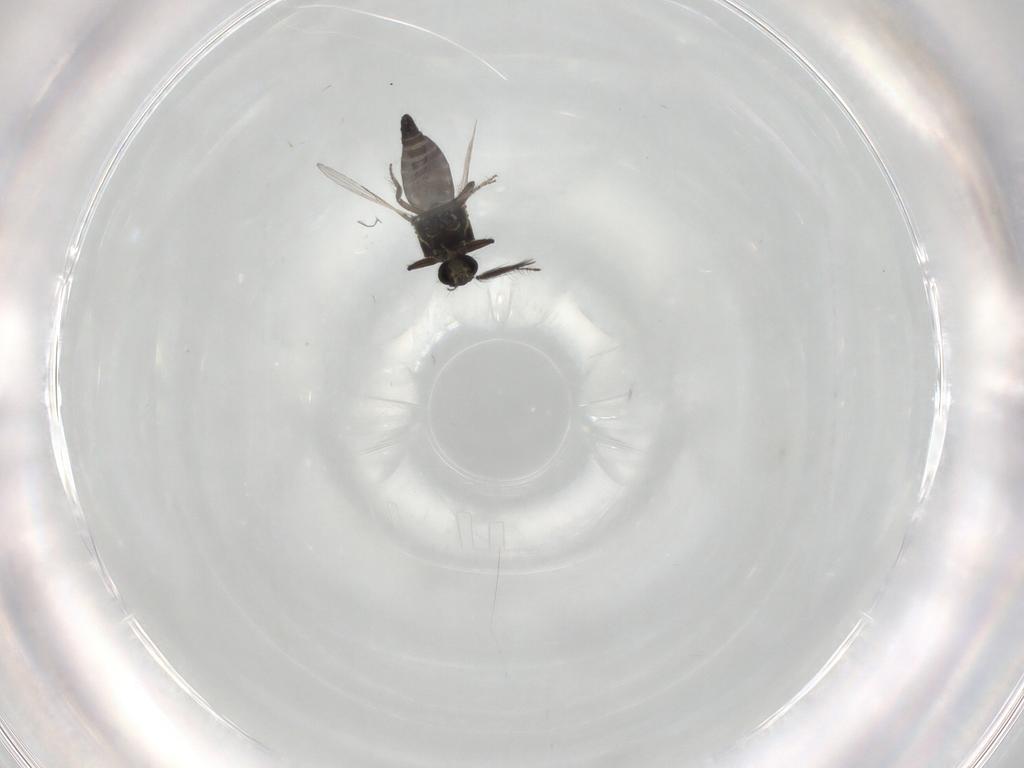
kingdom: Animalia
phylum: Arthropoda
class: Insecta
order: Diptera
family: Ceratopogonidae
